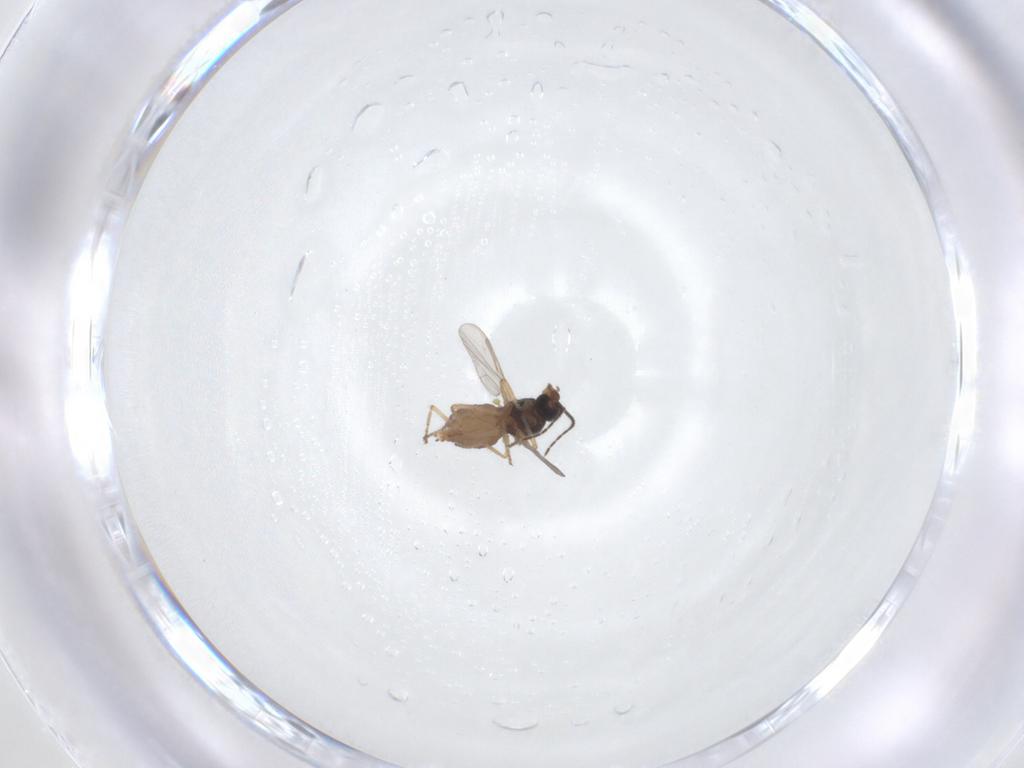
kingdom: Animalia
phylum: Arthropoda
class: Insecta
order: Diptera
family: Ceratopogonidae
